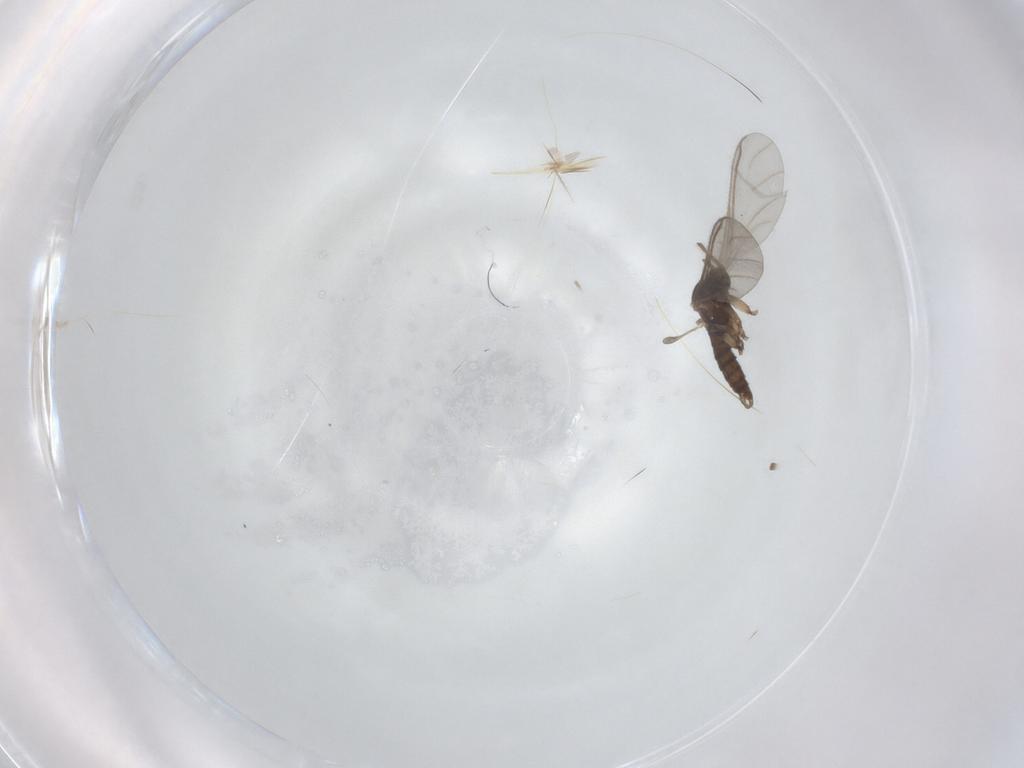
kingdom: Animalia
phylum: Arthropoda
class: Insecta
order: Diptera
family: Sciaridae
